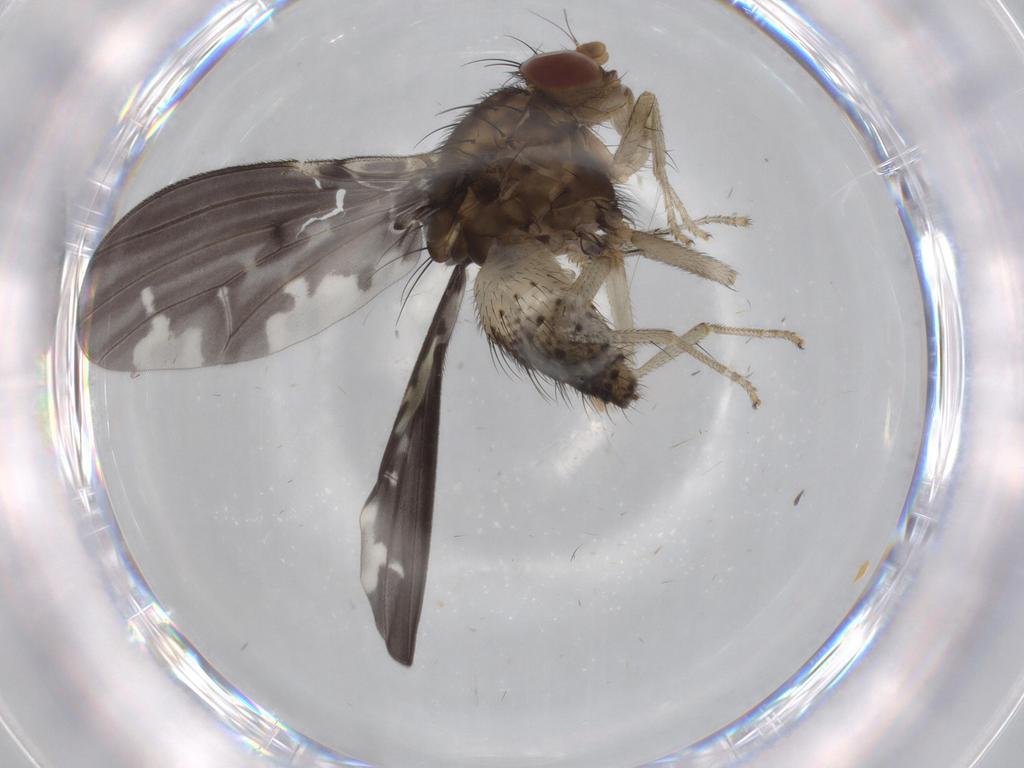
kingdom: Animalia
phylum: Arthropoda
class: Insecta
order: Diptera
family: Lauxaniidae
